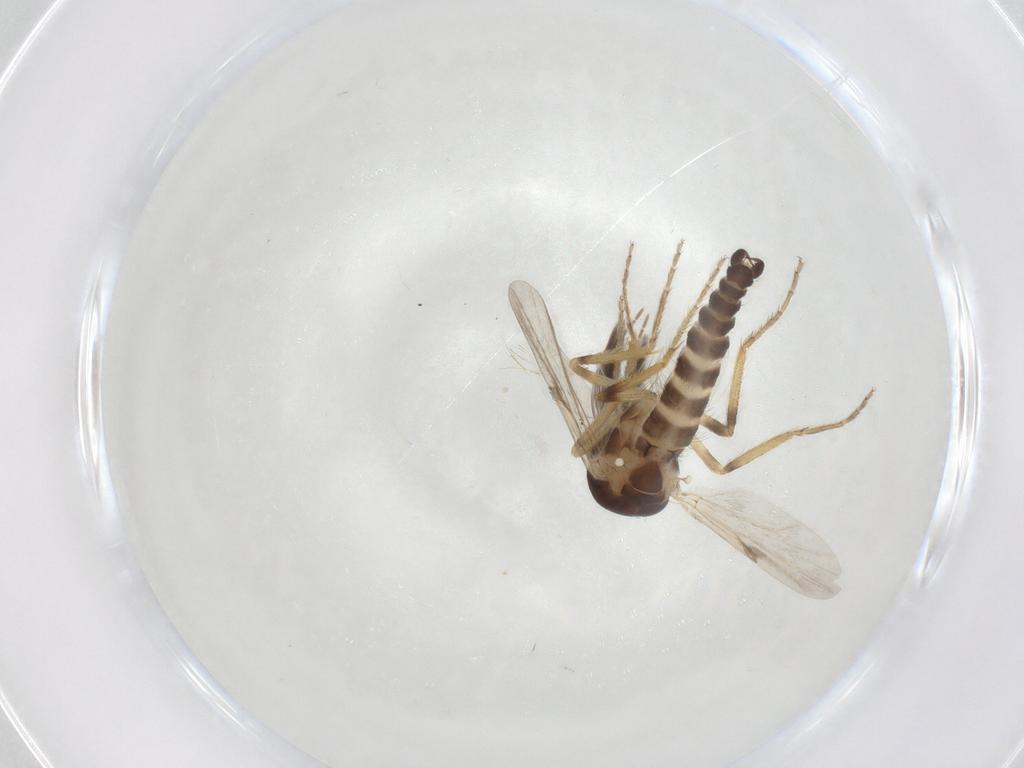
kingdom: Animalia
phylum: Arthropoda
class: Insecta
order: Diptera
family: Ceratopogonidae
